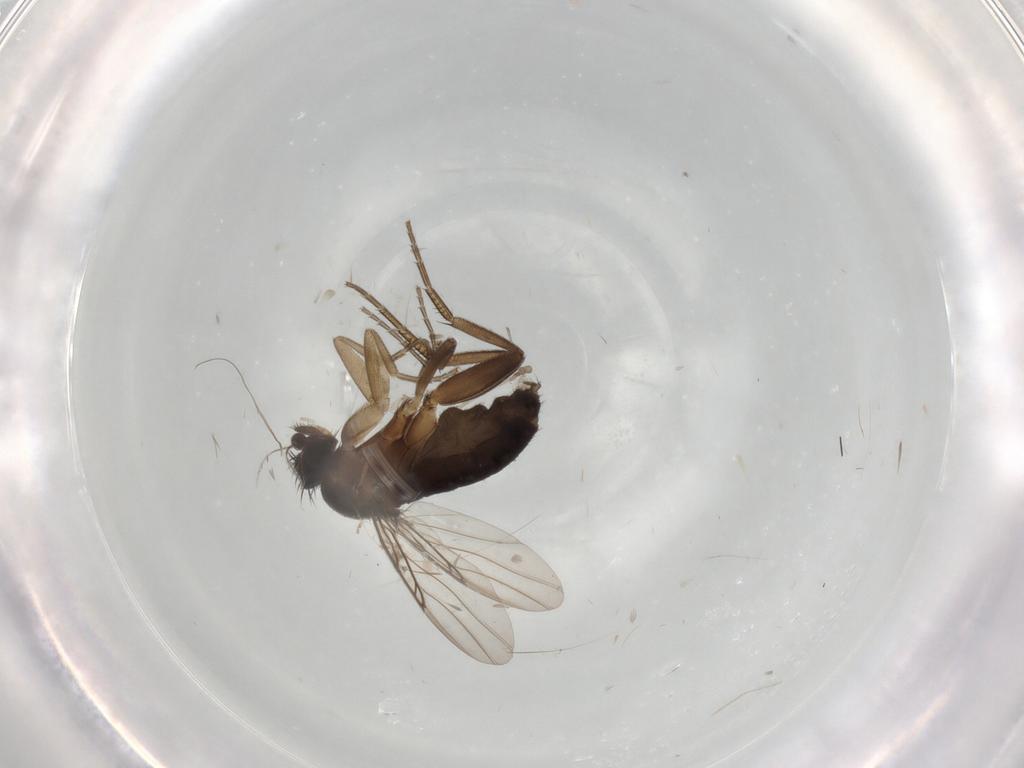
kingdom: Animalia
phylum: Arthropoda
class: Insecta
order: Diptera
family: Phoridae
